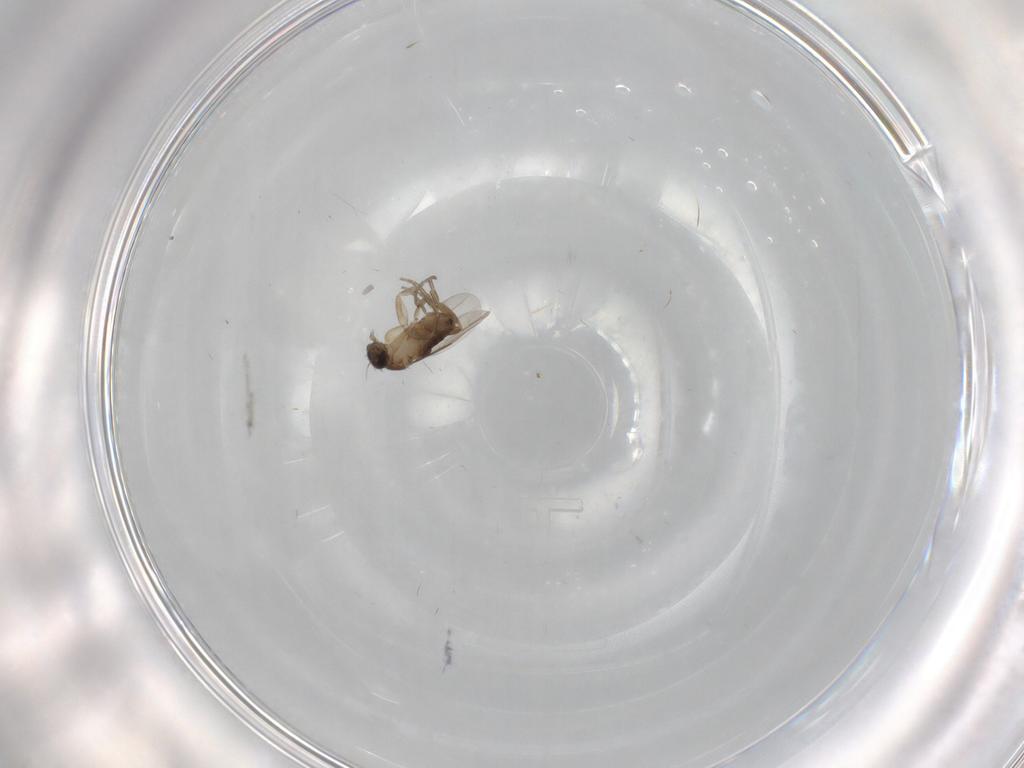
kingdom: Animalia
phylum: Arthropoda
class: Insecta
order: Diptera
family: Phoridae
